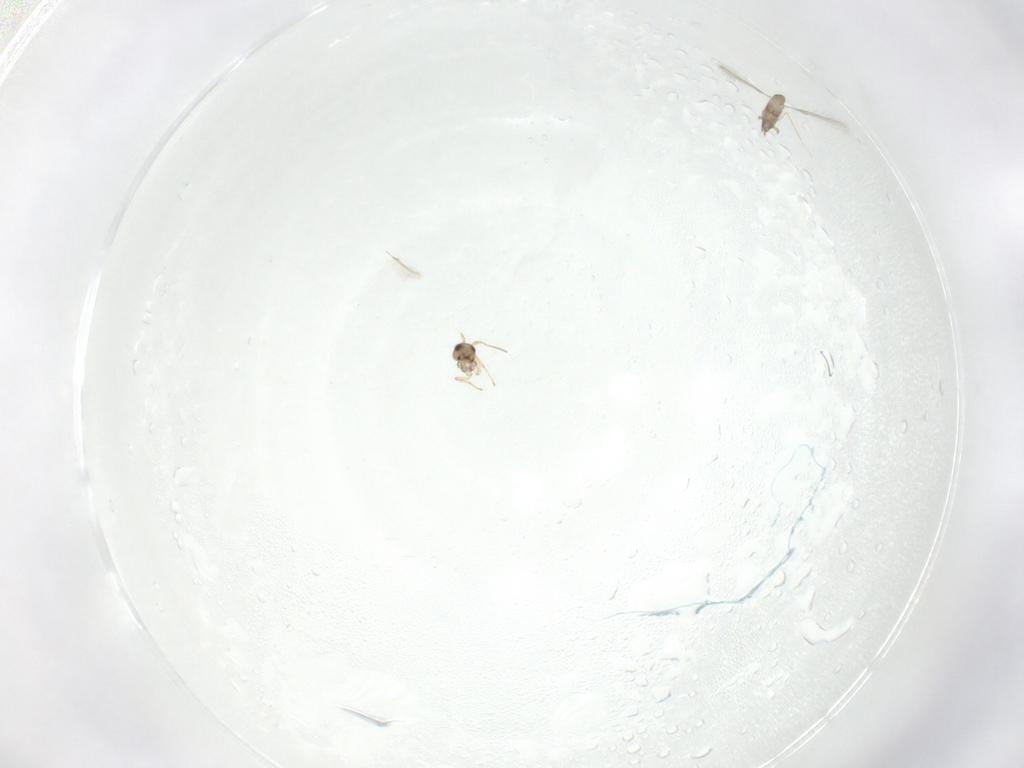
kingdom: Animalia
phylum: Arthropoda
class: Insecta
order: Hymenoptera
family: Mymaridae
